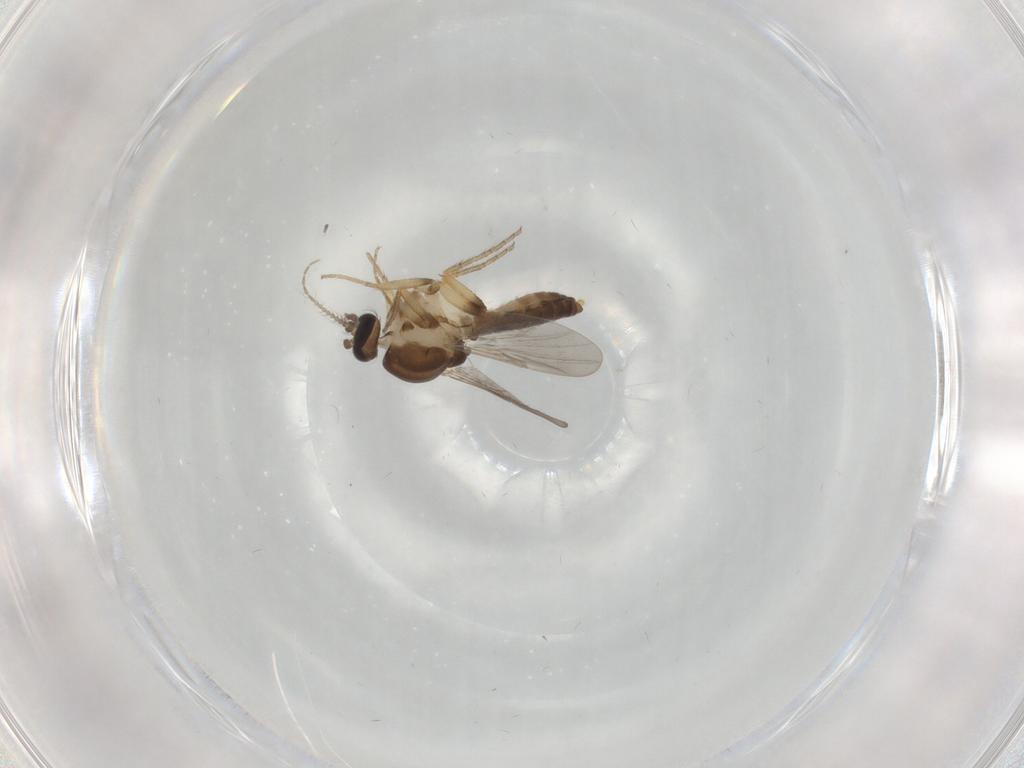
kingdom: Animalia
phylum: Arthropoda
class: Insecta
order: Diptera
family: Ceratopogonidae
